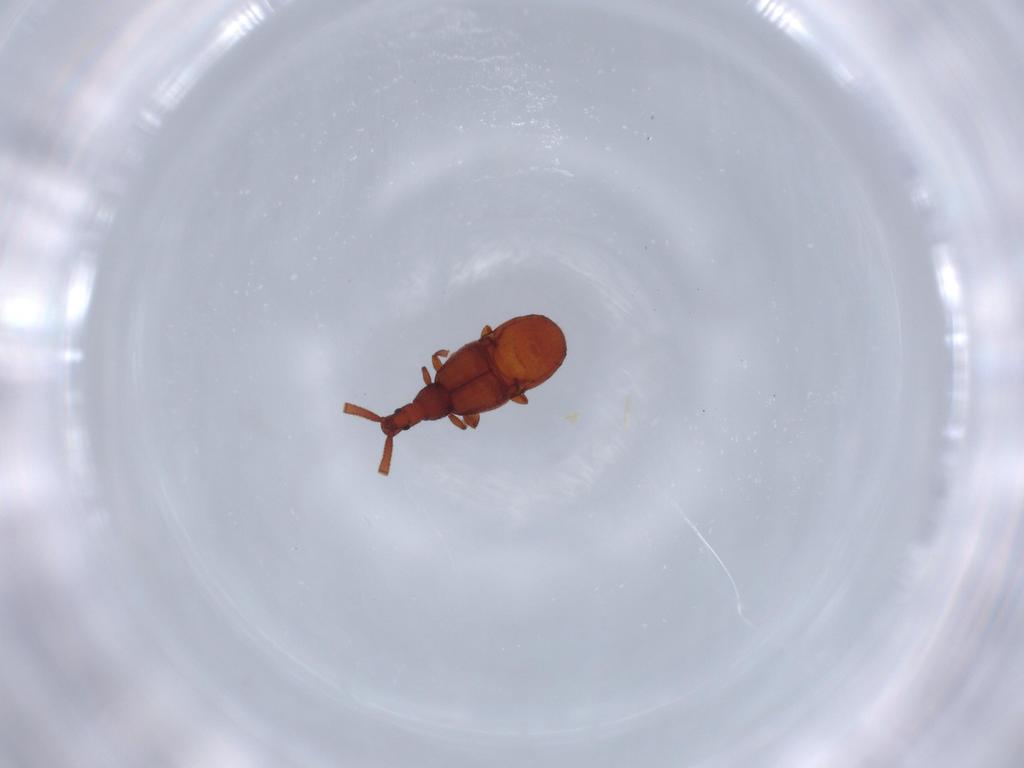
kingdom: Animalia
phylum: Arthropoda
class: Insecta
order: Coleoptera
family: Staphylinidae
